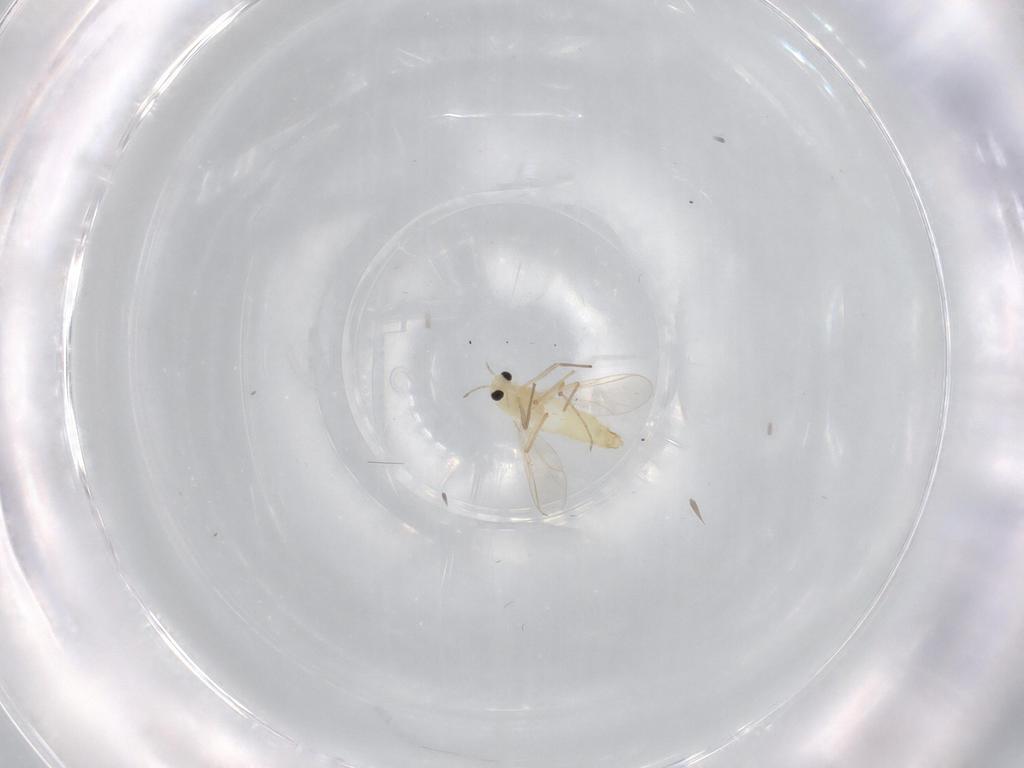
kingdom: Animalia
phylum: Arthropoda
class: Insecta
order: Diptera
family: Chironomidae
